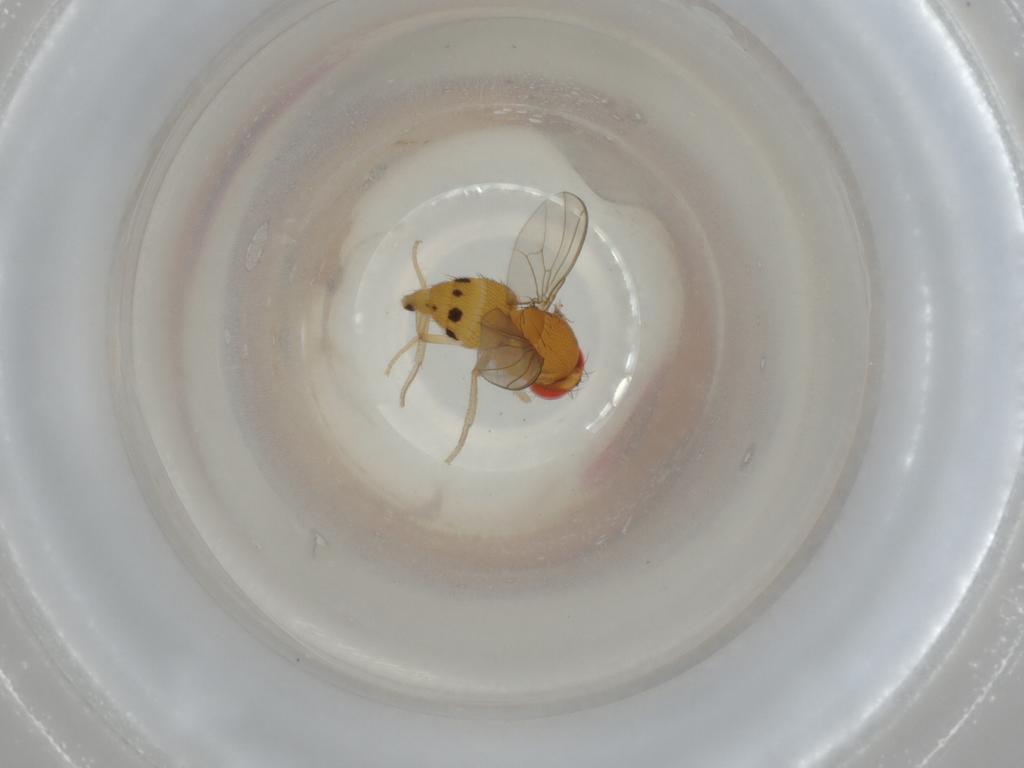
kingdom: Animalia
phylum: Arthropoda
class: Insecta
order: Diptera
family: Drosophilidae
